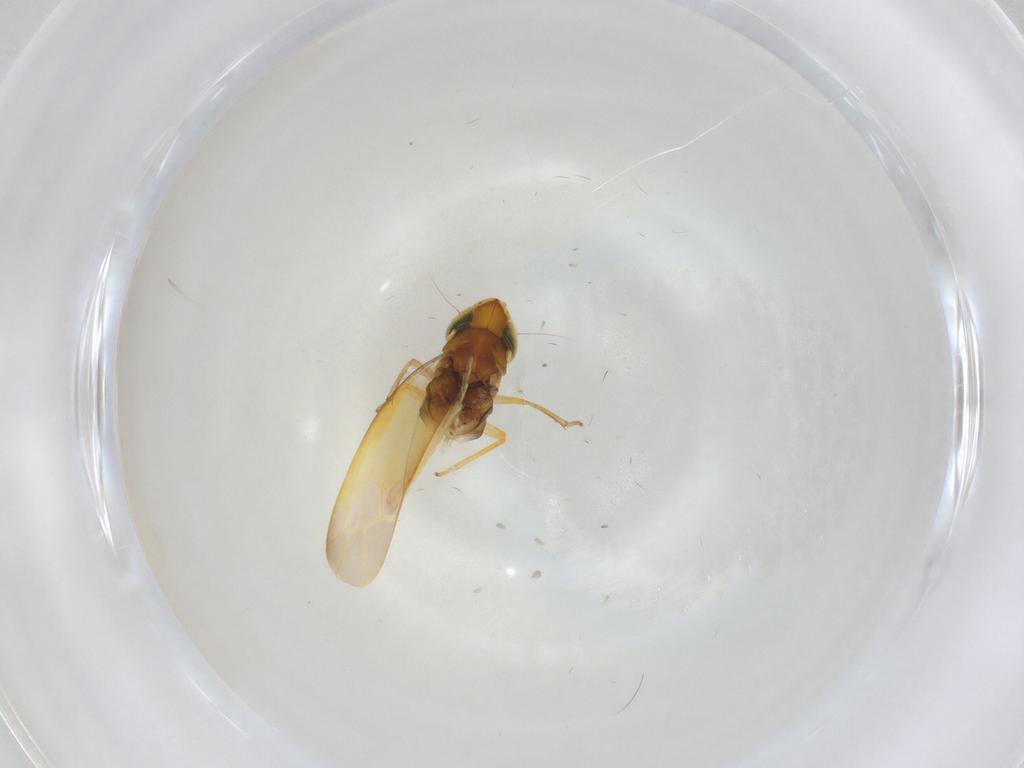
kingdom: Animalia
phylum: Arthropoda
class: Insecta
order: Hemiptera
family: Cicadellidae
